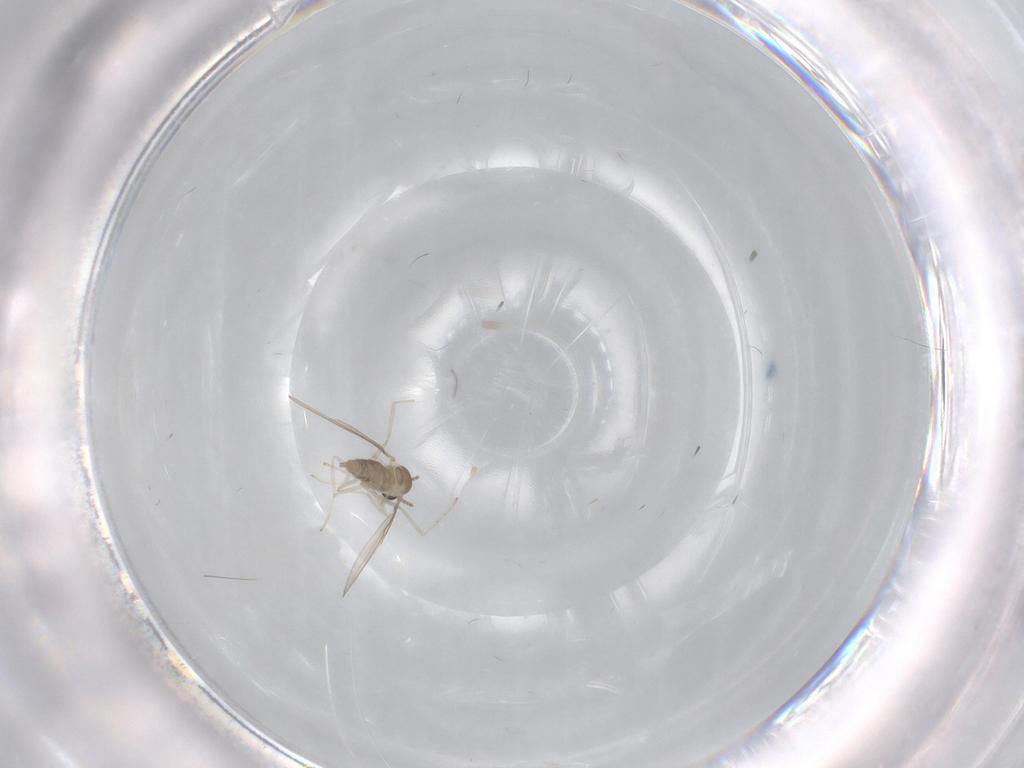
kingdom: Animalia
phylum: Arthropoda
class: Insecta
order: Diptera
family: Cecidomyiidae
